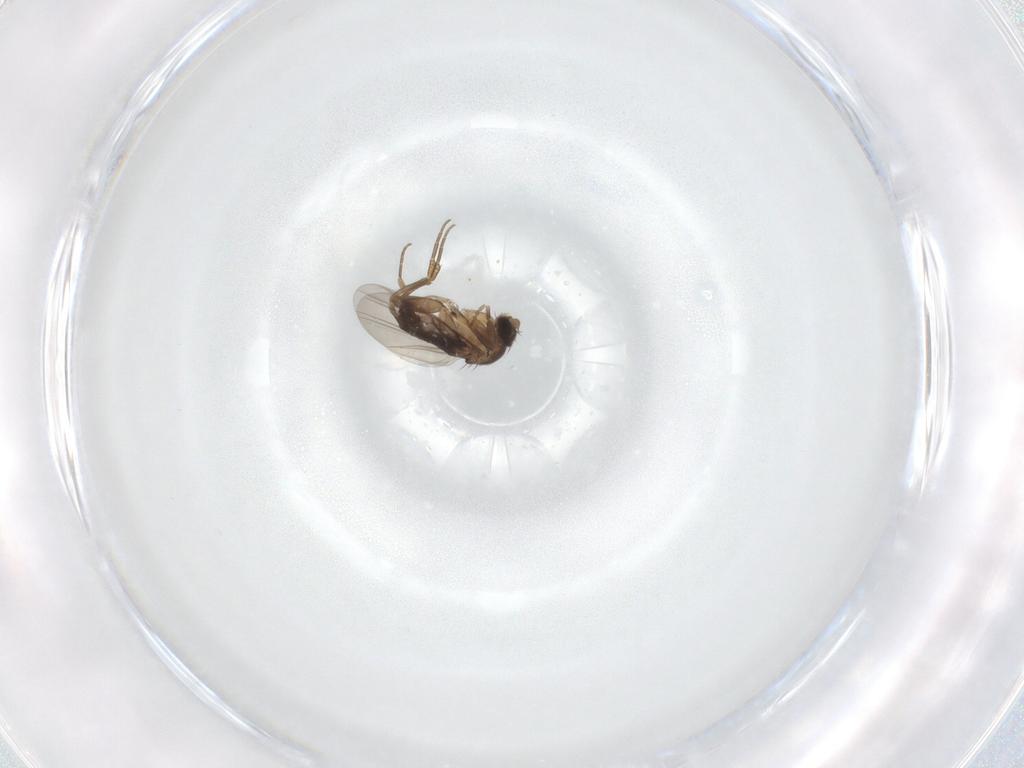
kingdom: Animalia
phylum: Arthropoda
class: Insecta
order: Diptera
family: Phoridae
